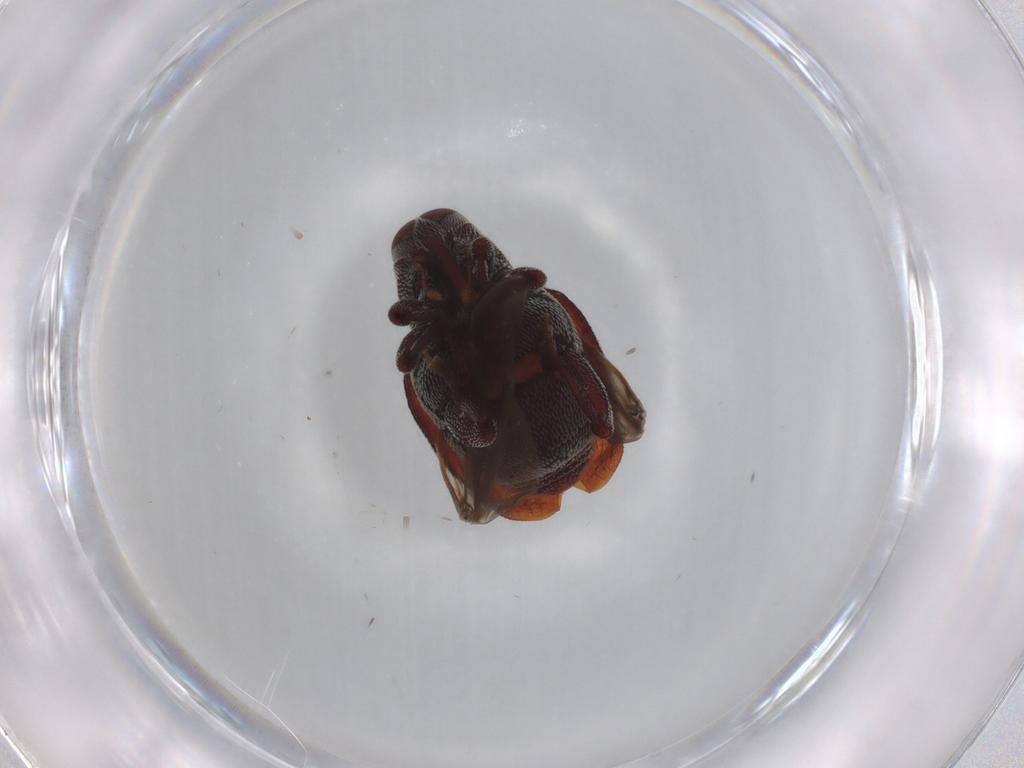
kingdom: Animalia
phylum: Arthropoda
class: Insecta
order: Coleoptera
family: Curculionidae
